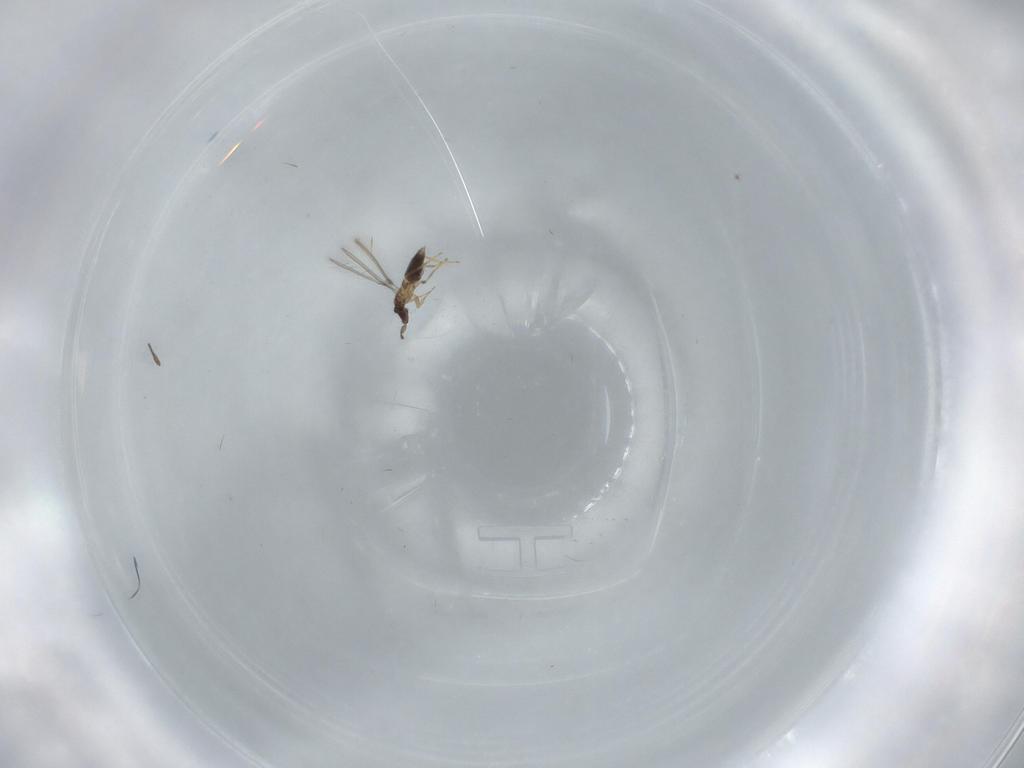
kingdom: Animalia
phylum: Arthropoda
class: Insecta
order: Hymenoptera
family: Mymaridae
